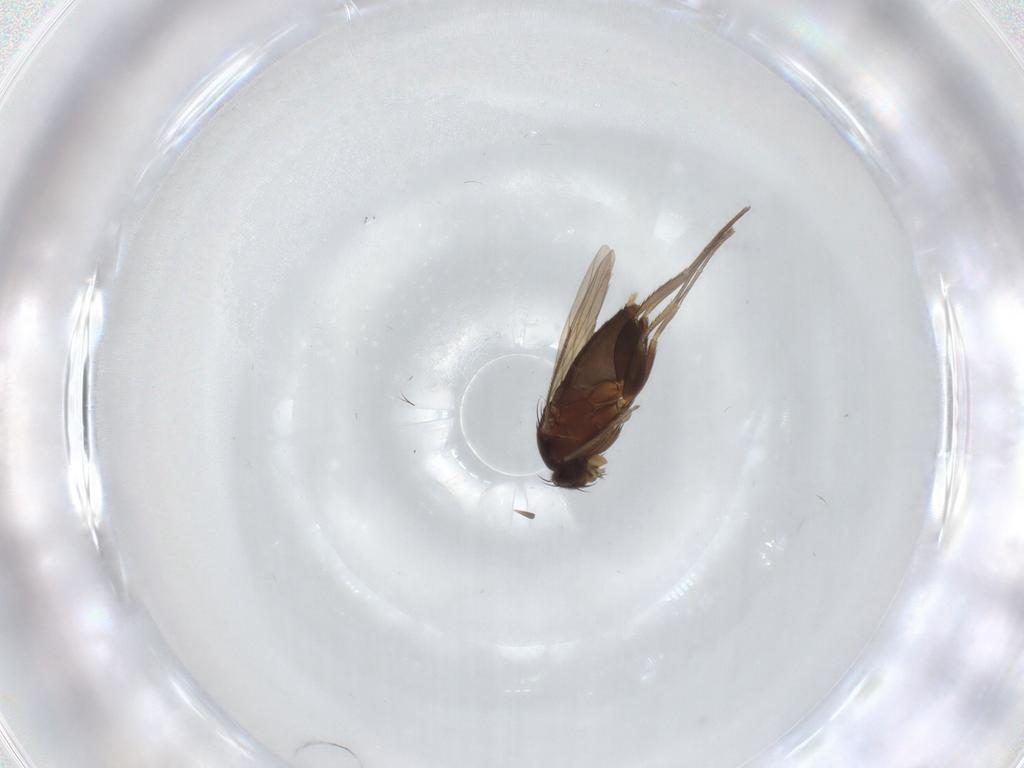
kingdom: Animalia
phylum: Arthropoda
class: Insecta
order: Diptera
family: Phoridae
